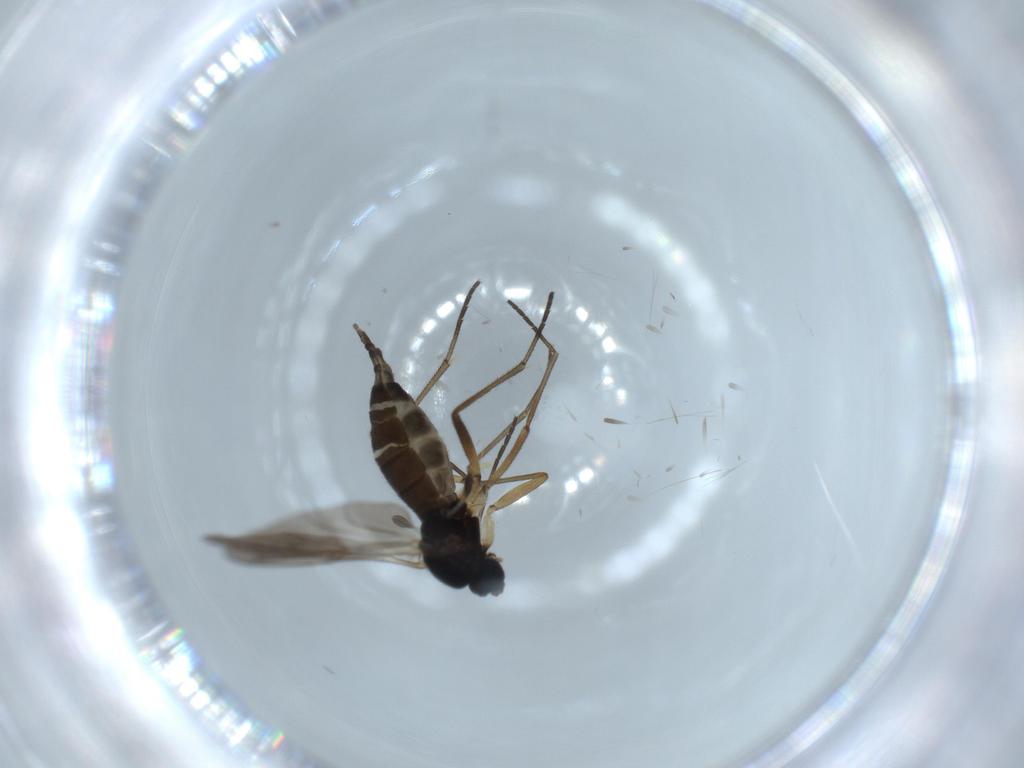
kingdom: Animalia
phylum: Arthropoda
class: Insecta
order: Diptera
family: Sciaridae
